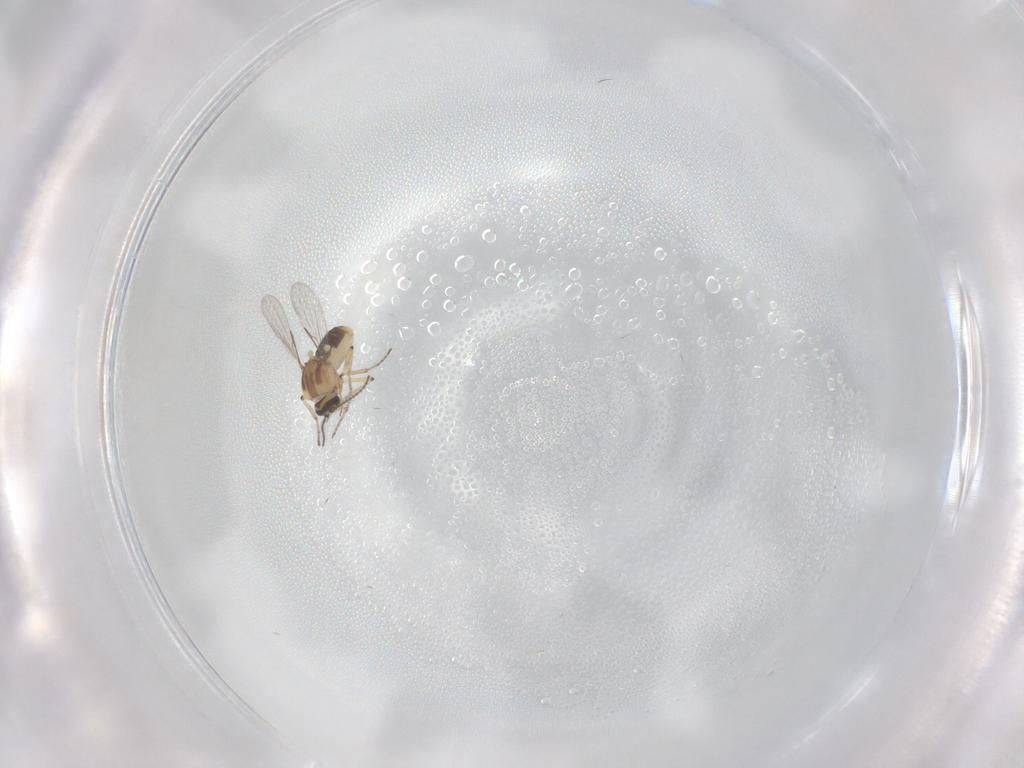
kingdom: Animalia
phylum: Arthropoda
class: Insecta
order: Diptera
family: Ceratopogonidae
